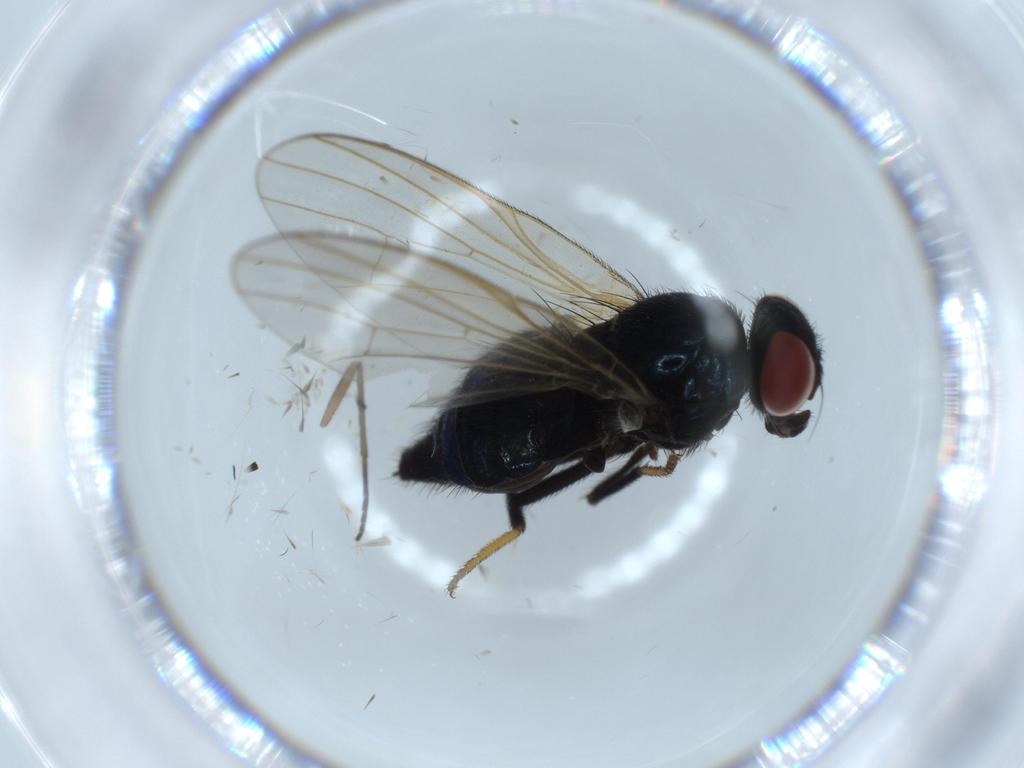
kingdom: Animalia
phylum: Arthropoda
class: Insecta
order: Diptera
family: Lonchaeidae
